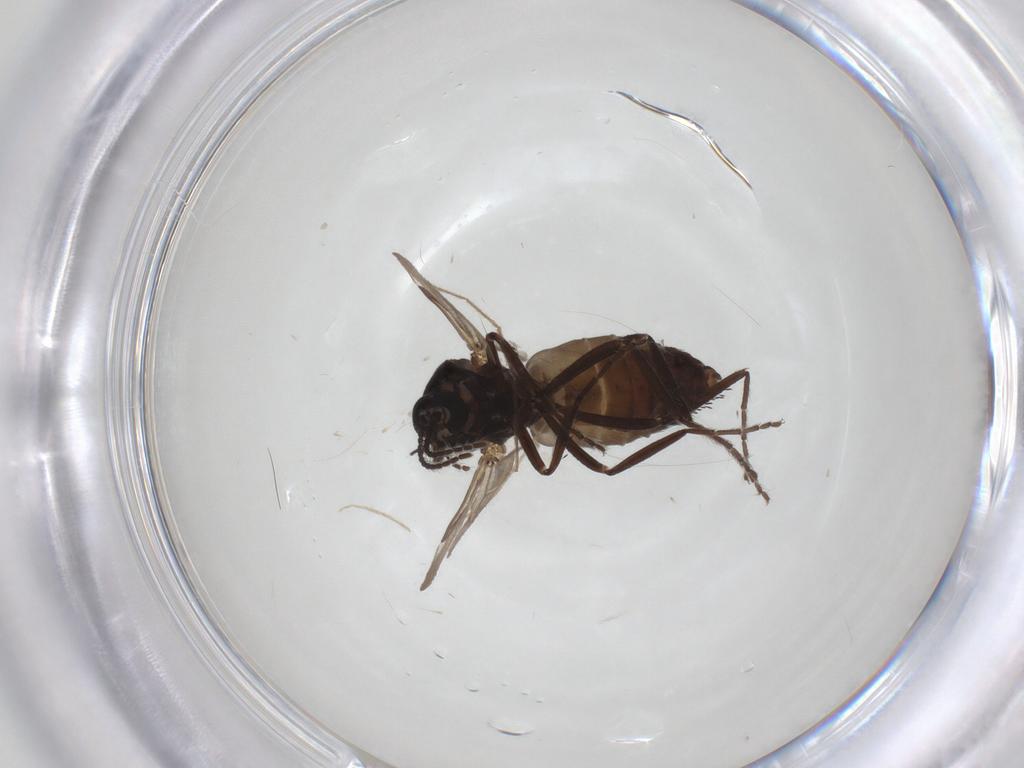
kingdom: Animalia
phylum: Arthropoda
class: Insecta
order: Diptera
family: Chironomidae
